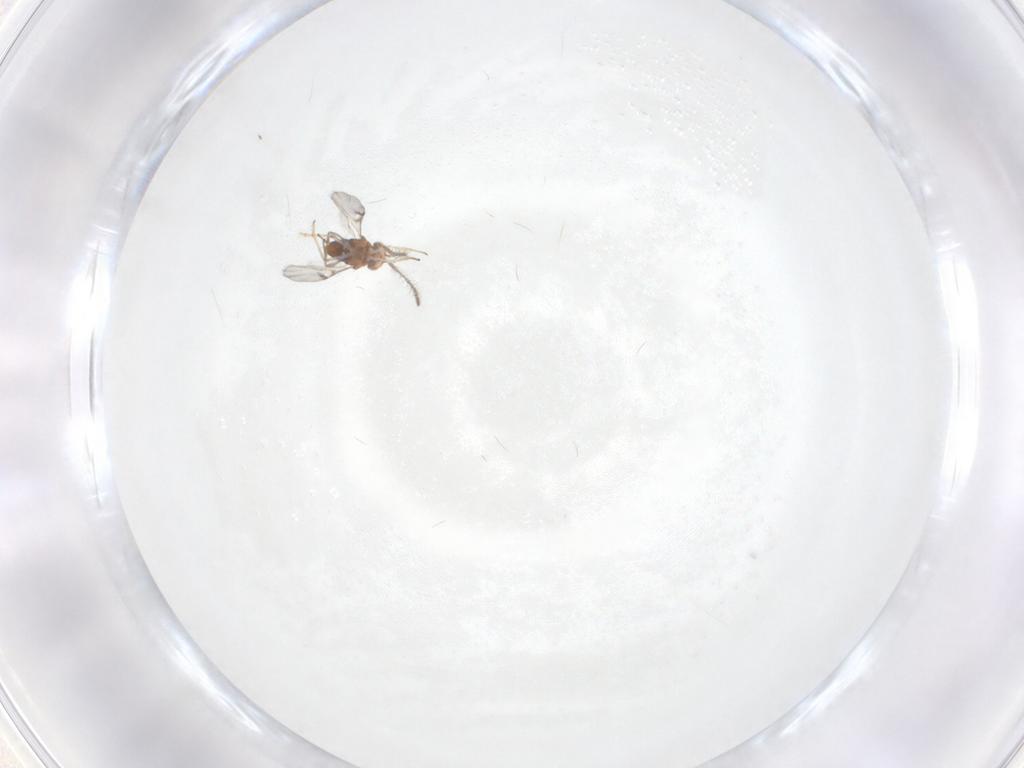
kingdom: Animalia
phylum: Arthropoda
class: Insecta
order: Hymenoptera
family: Encyrtidae
